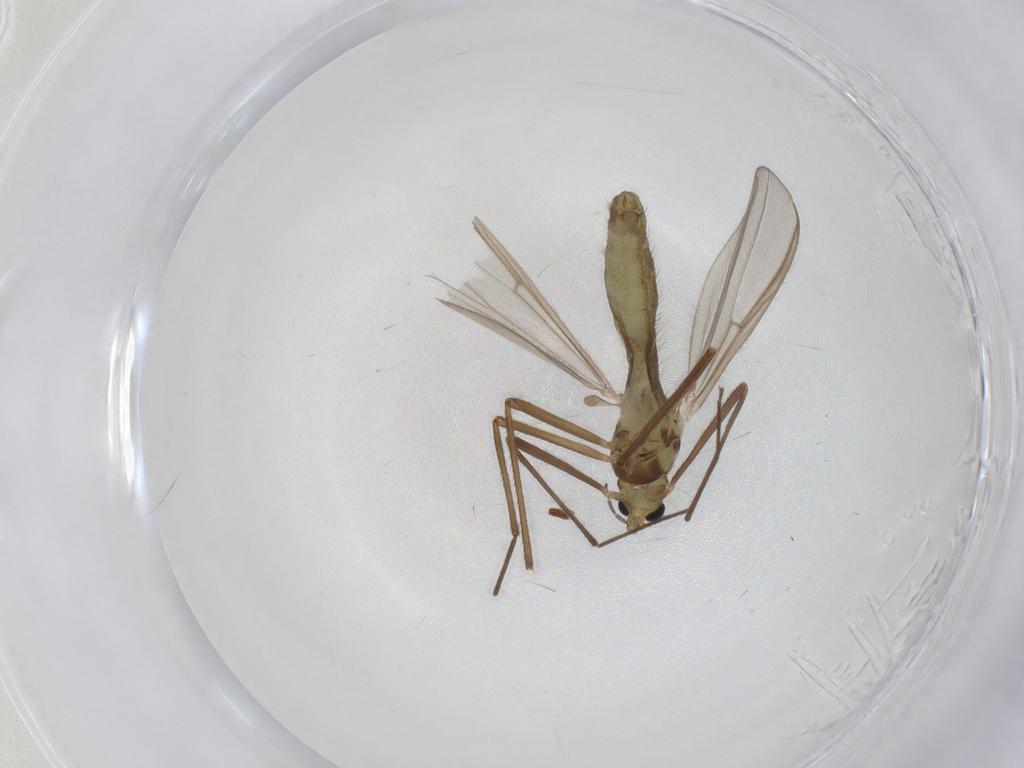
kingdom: Animalia
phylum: Arthropoda
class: Insecta
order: Diptera
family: Chironomidae
